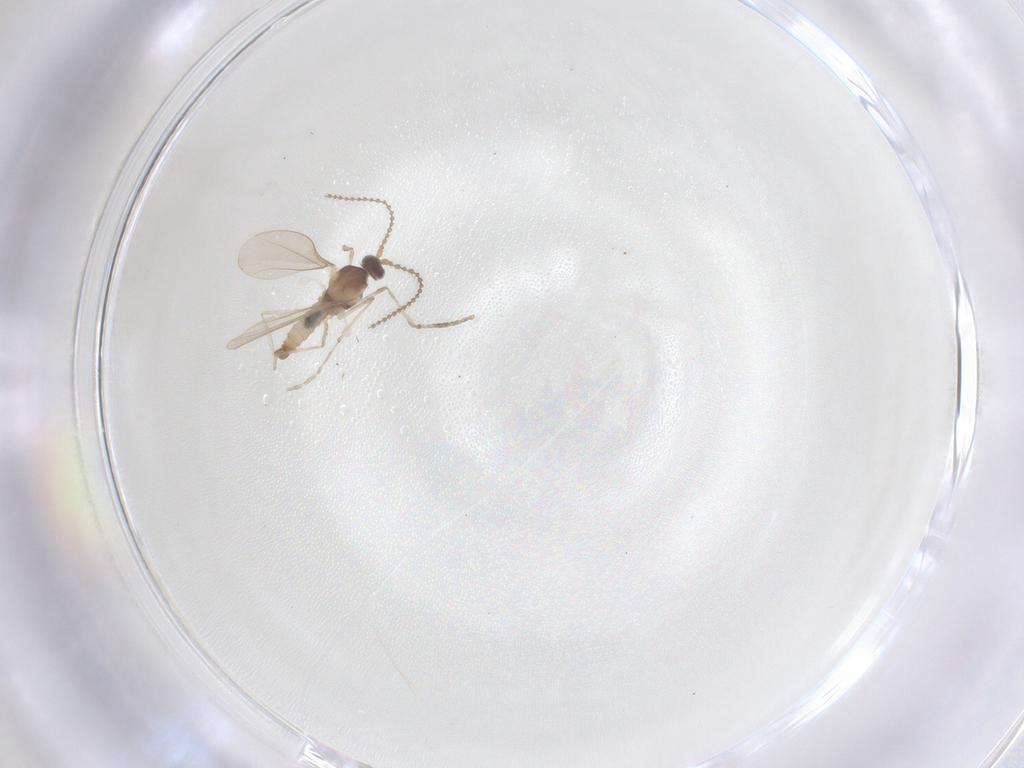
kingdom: Animalia
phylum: Arthropoda
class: Insecta
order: Diptera
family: Cecidomyiidae
